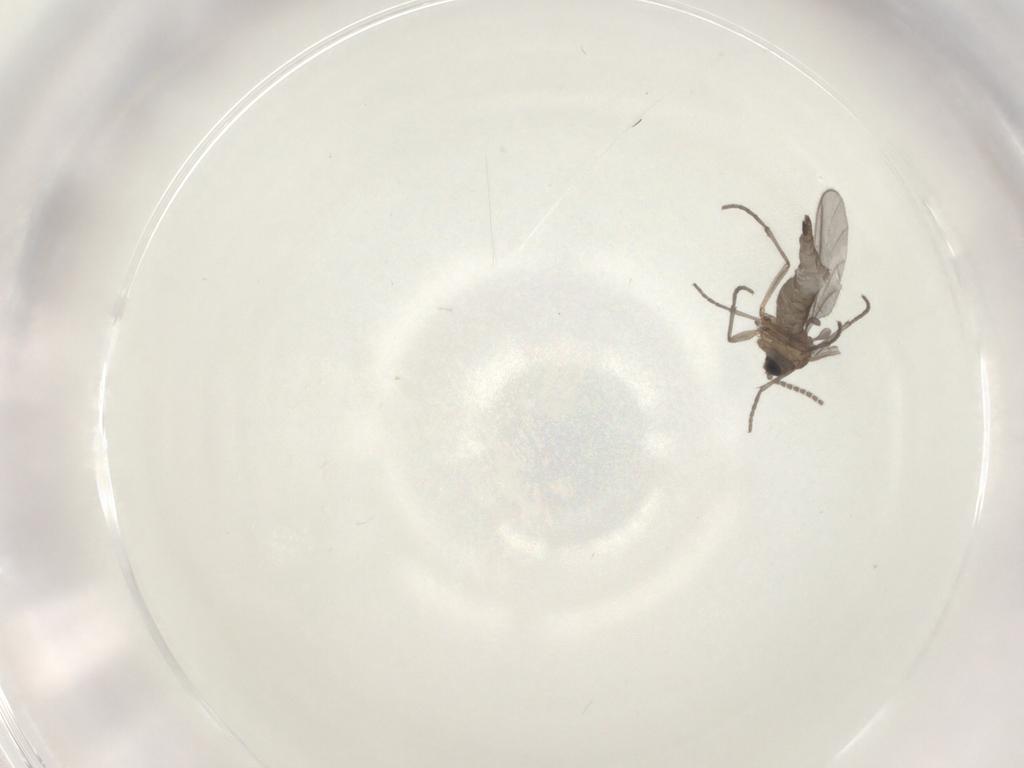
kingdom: Animalia
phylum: Arthropoda
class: Insecta
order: Diptera
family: Sciaridae
